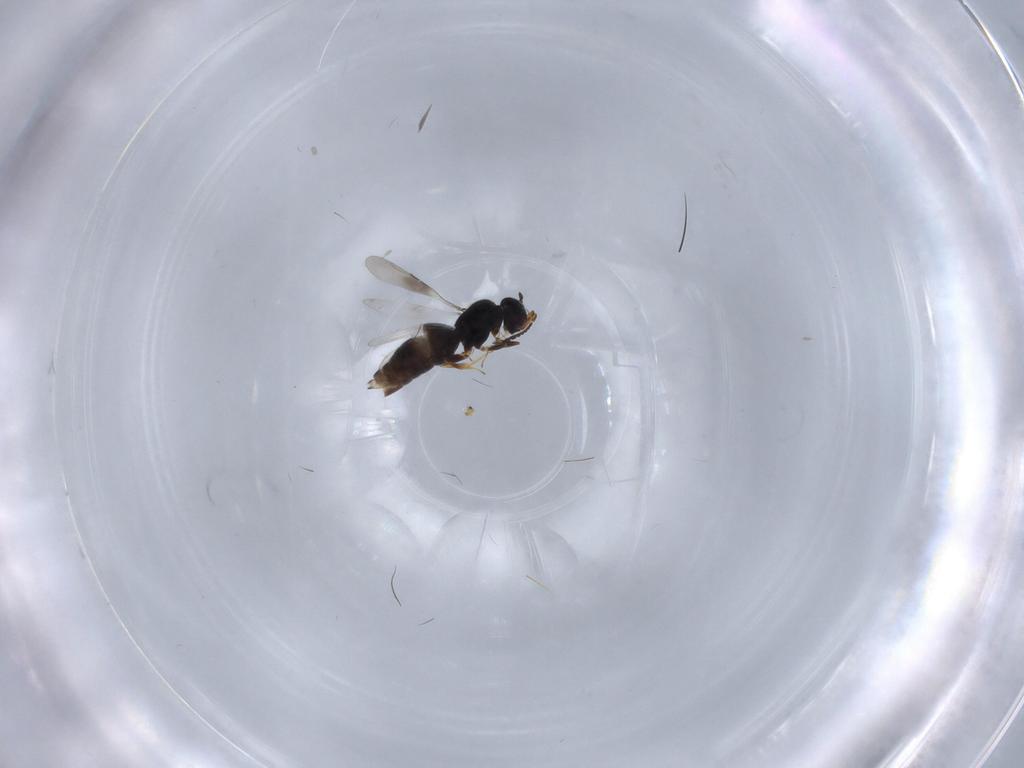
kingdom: Animalia
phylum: Arthropoda
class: Insecta
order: Hymenoptera
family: Ceraphronidae
